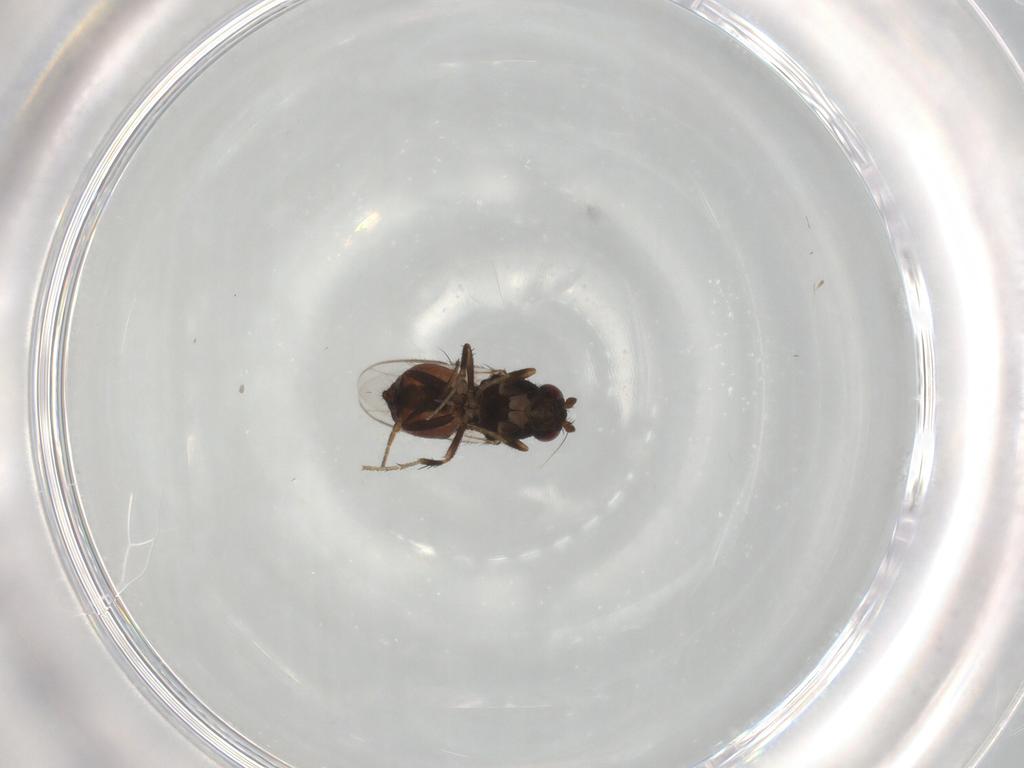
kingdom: Animalia
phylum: Arthropoda
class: Insecta
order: Diptera
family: Sphaeroceridae
